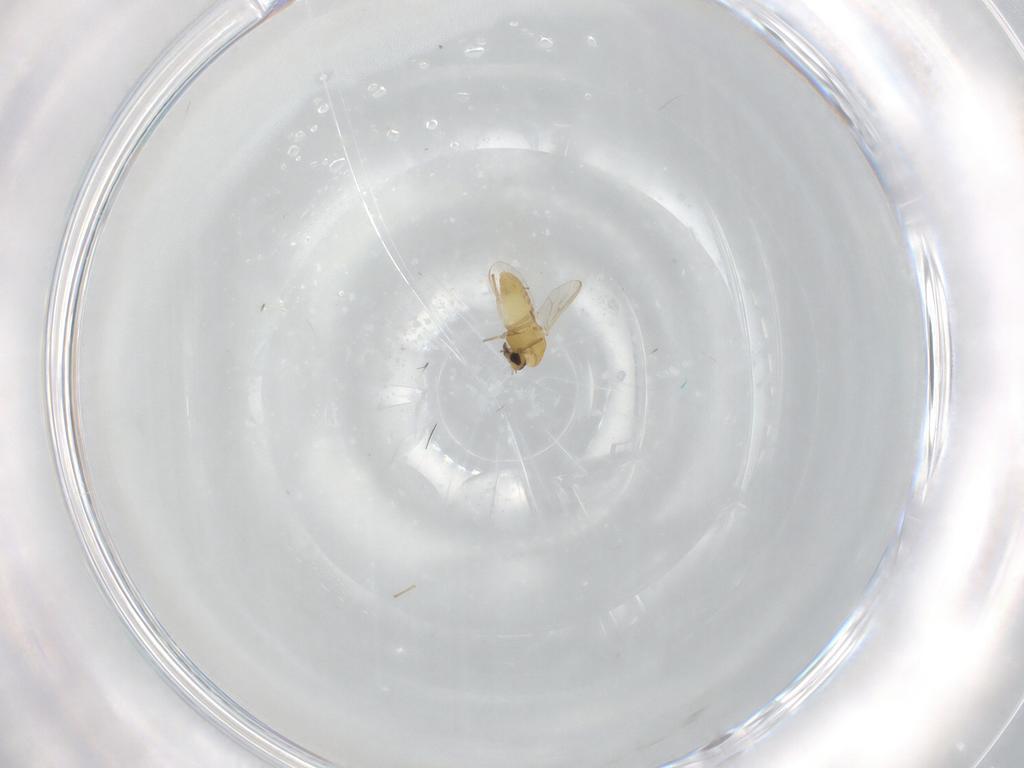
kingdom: Animalia
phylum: Arthropoda
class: Insecta
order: Diptera
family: Chironomidae
